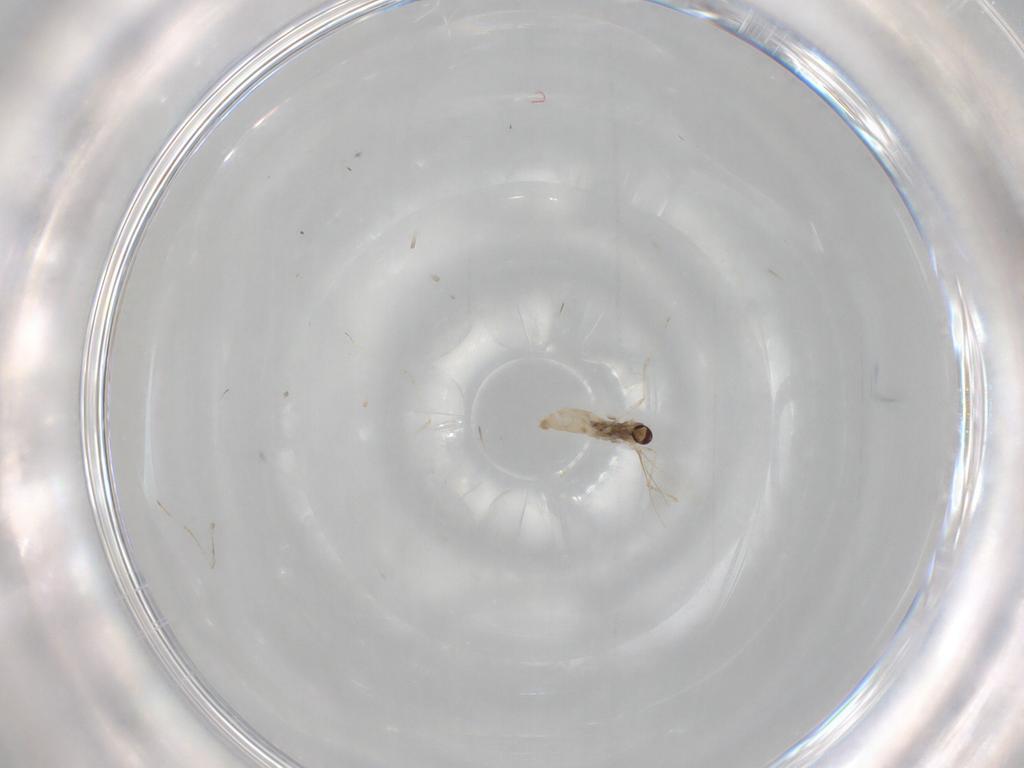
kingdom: Animalia
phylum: Arthropoda
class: Insecta
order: Diptera
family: Cecidomyiidae
